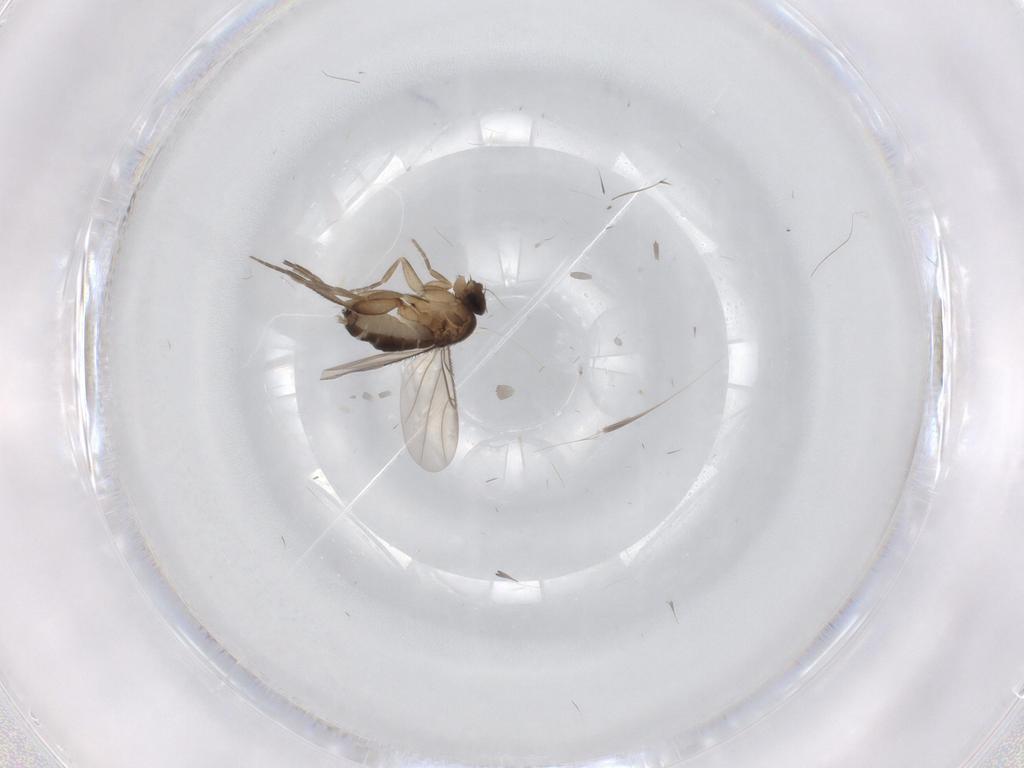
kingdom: Animalia
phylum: Arthropoda
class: Insecta
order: Diptera
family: Phoridae
